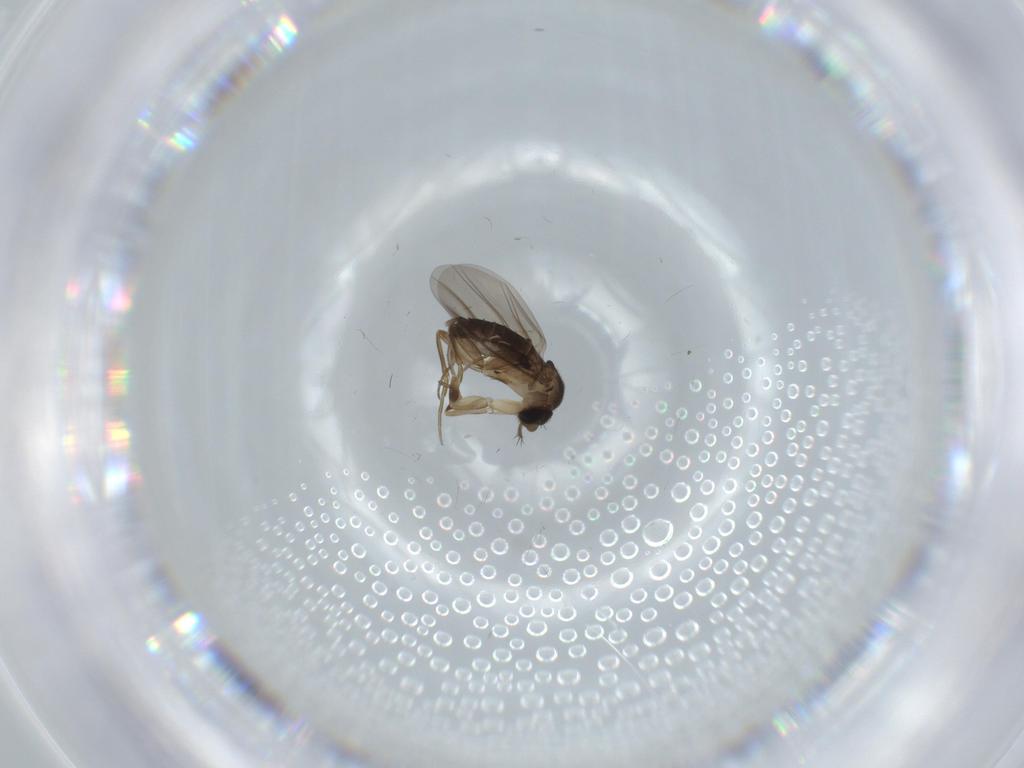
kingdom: Animalia
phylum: Arthropoda
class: Insecta
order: Diptera
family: Phoridae
